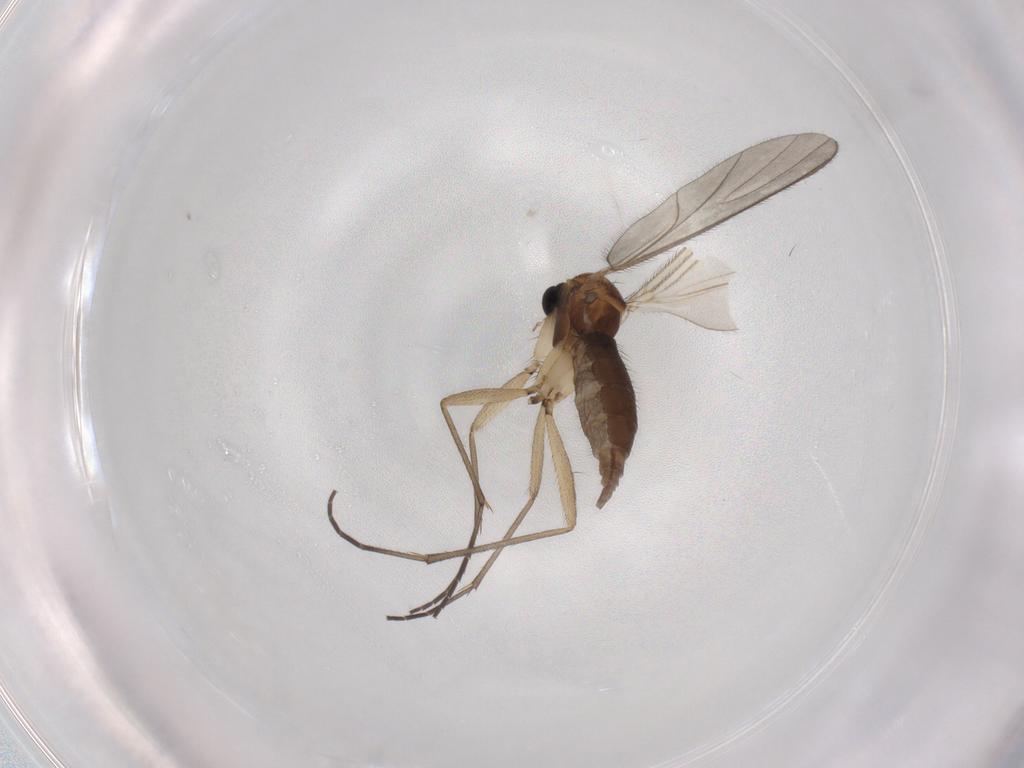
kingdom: Animalia
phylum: Arthropoda
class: Insecta
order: Diptera
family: Sciaridae
